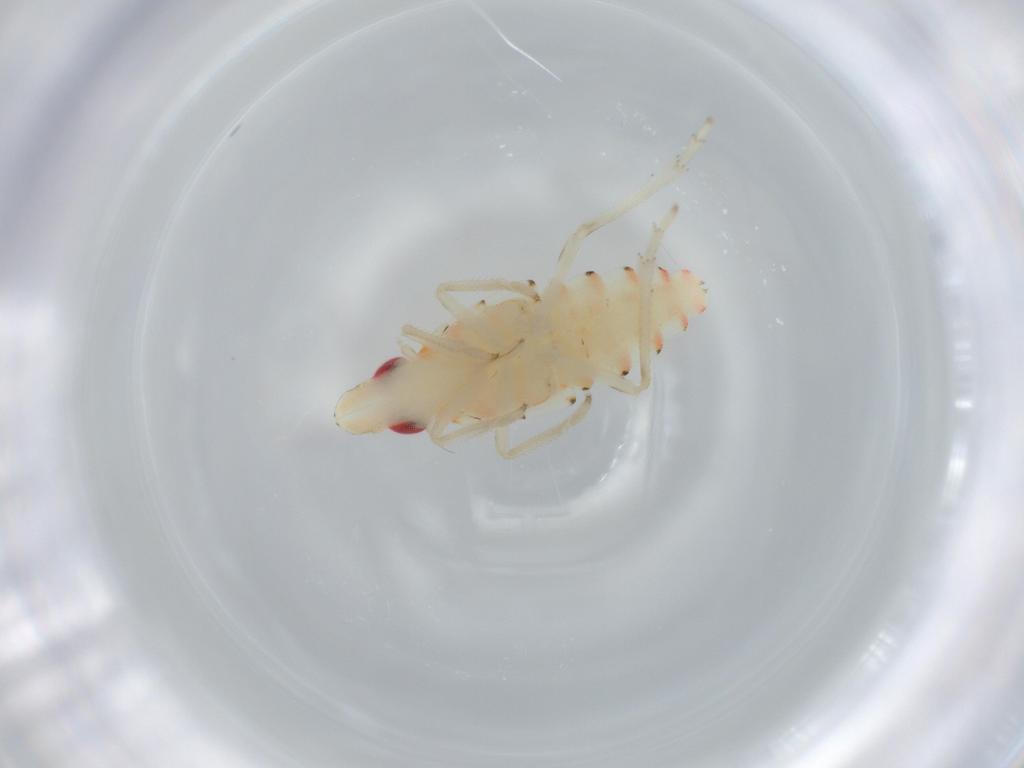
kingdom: Animalia
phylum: Arthropoda
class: Insecta
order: Hemiptera
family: Tropiduchidae
